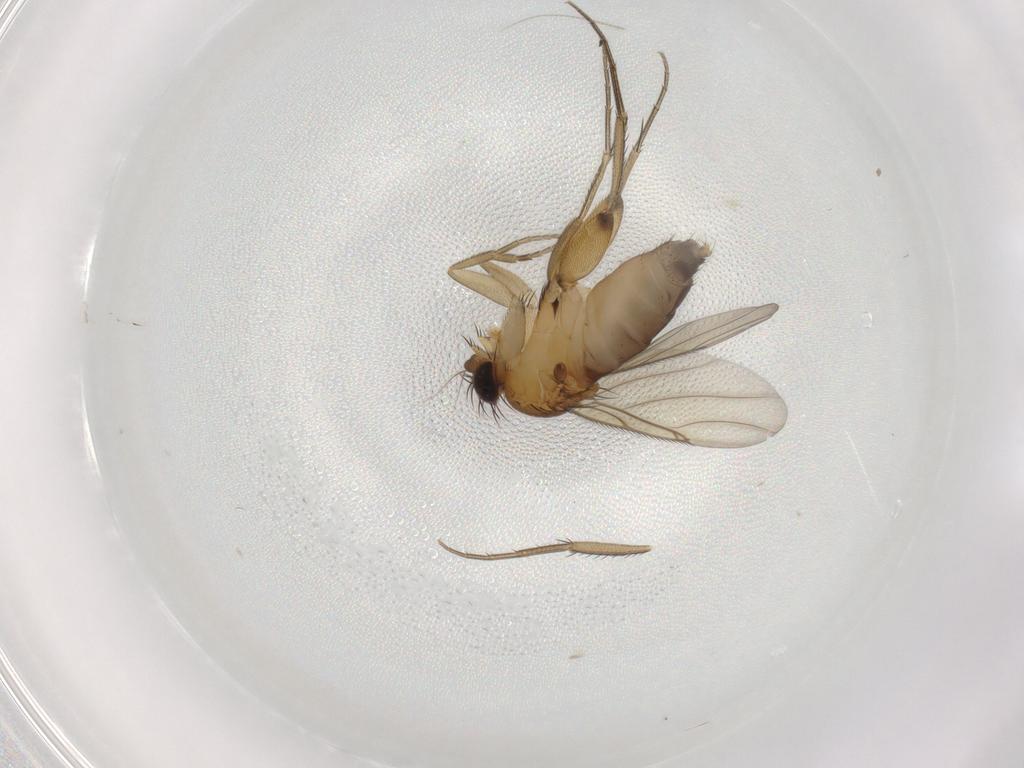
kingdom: Animalia
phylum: Arthropoda
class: Insecta
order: Diptera
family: Phoridae
